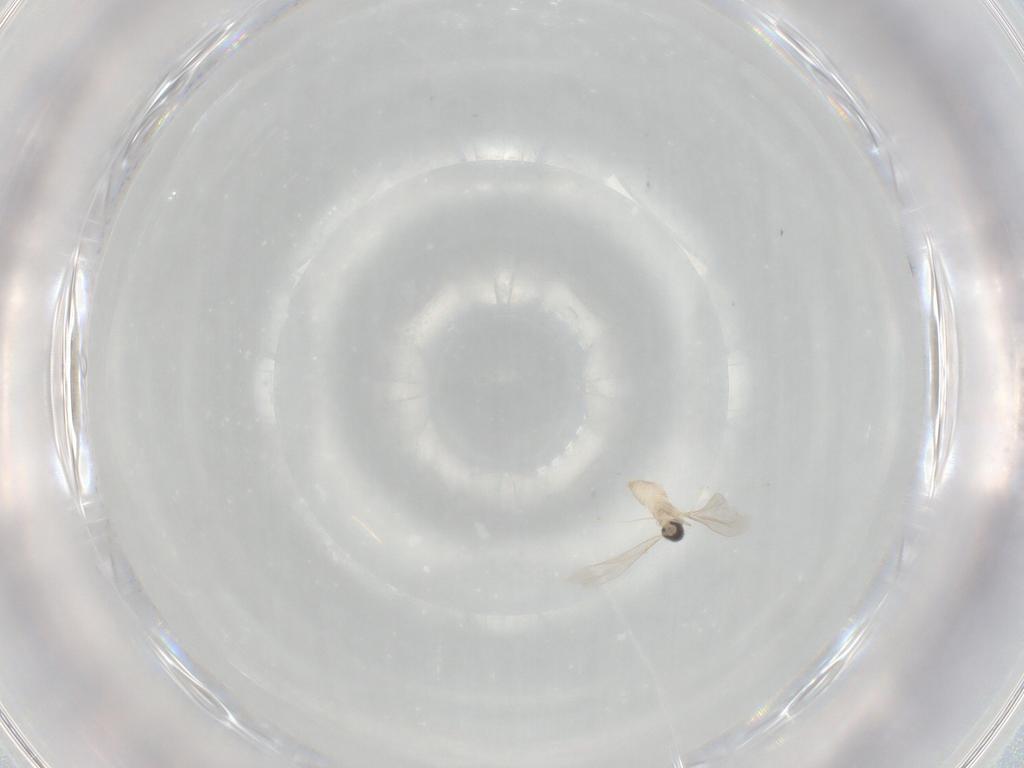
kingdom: Animalia
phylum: Arthropoda
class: Insecta
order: Diptera
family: Cecidomyiidae
